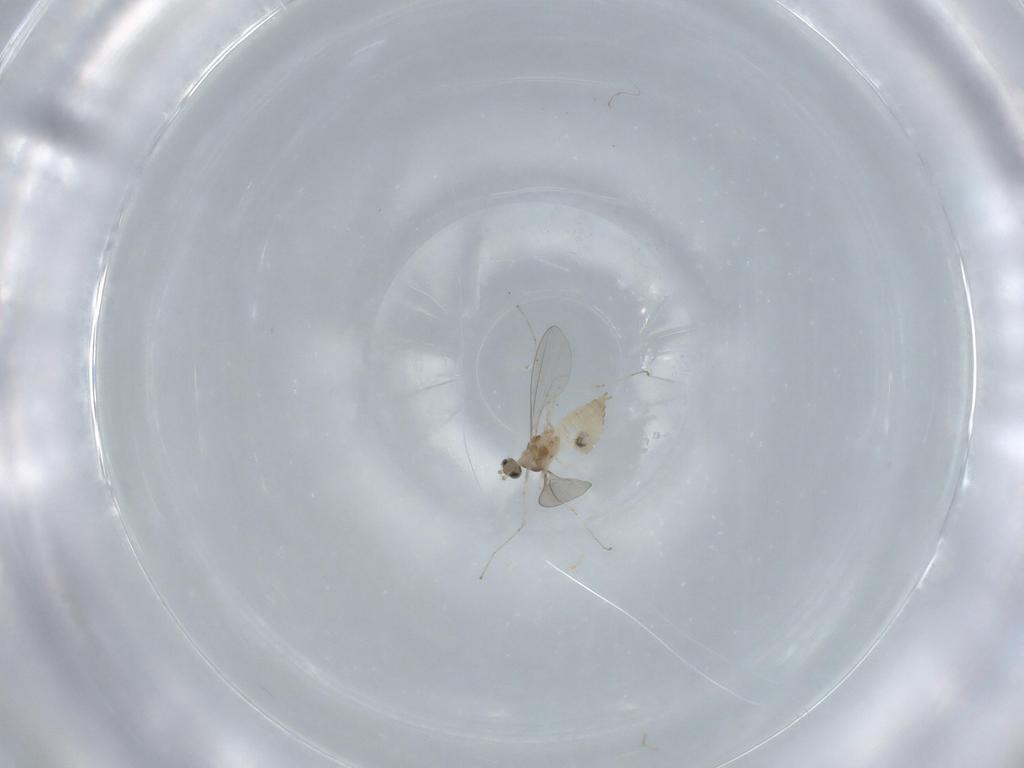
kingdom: Animalia
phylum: Arthropoda
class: Insecta
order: Diptera
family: Cecidomyiidae
